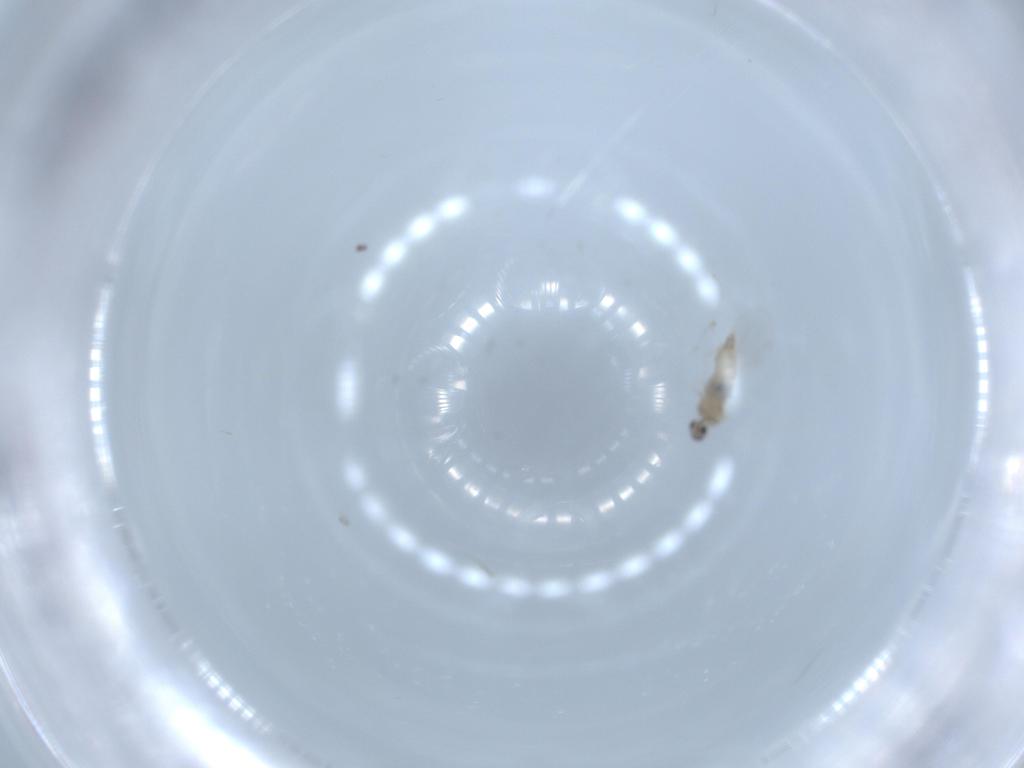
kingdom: Animalia
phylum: Arthropoda
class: Insecta
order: Diptera
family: Cecidomyiidae
